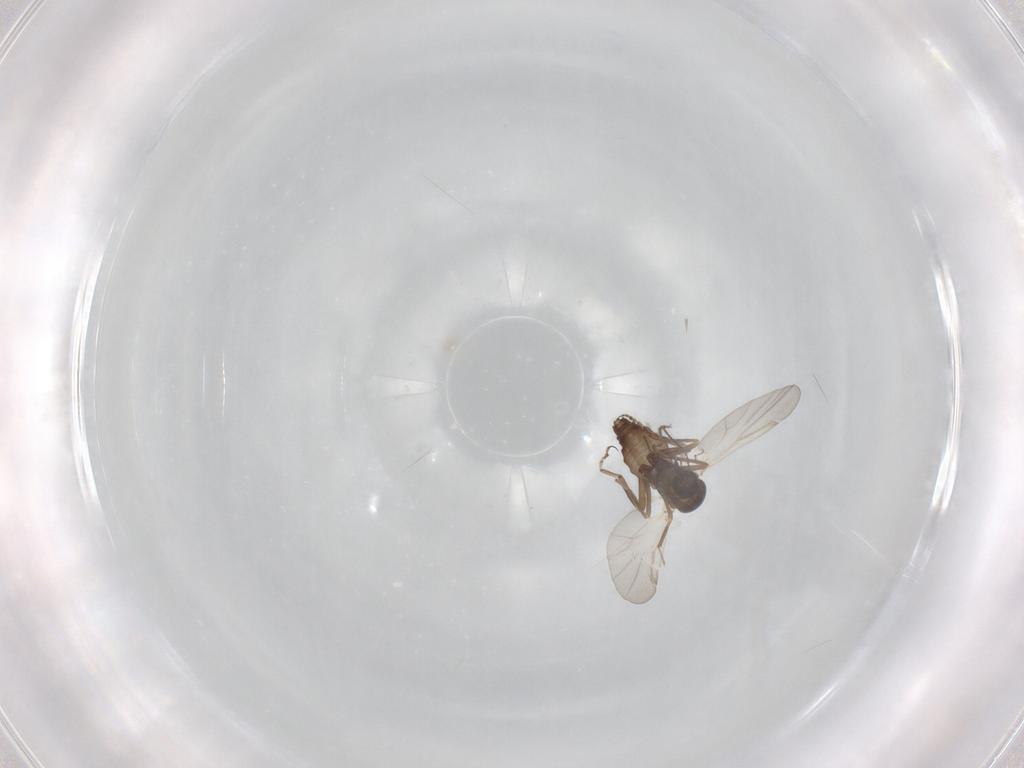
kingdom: Animalia
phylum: Arthropoda
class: Insecta
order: Diptera
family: Ceratopogonidae
